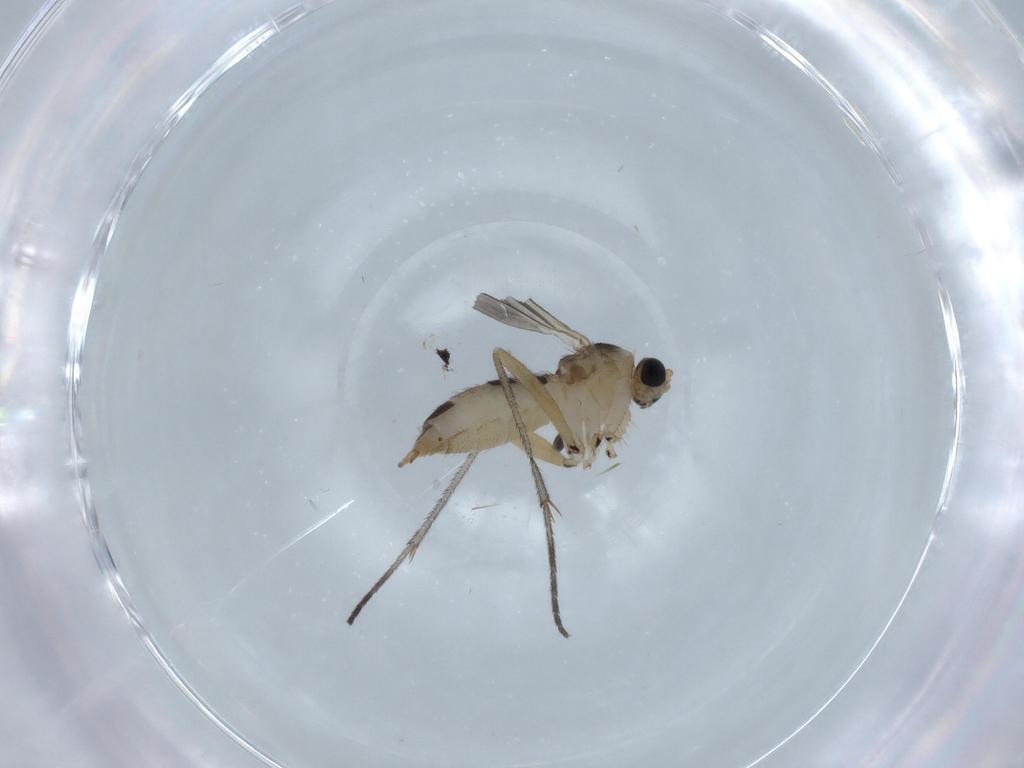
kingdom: Animalia
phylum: Arthropoda
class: Insecta
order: Diptera
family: Sciaridae
